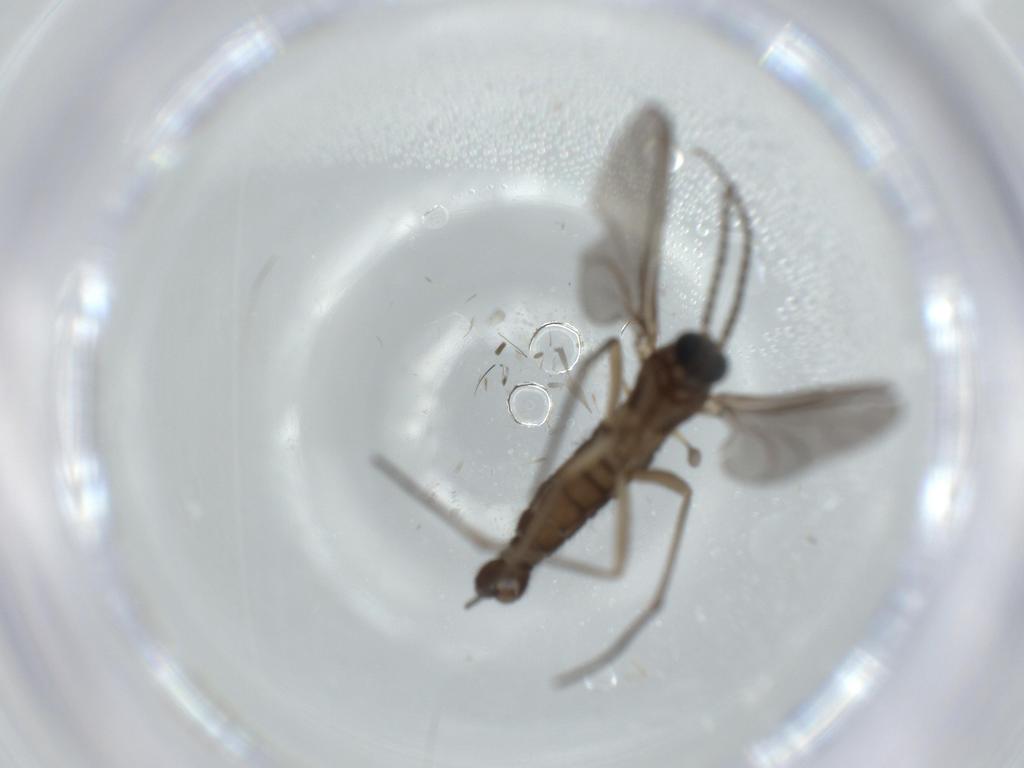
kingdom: Animalia
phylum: Arthropoda
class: Insecta
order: Diptera
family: Sciaridae
